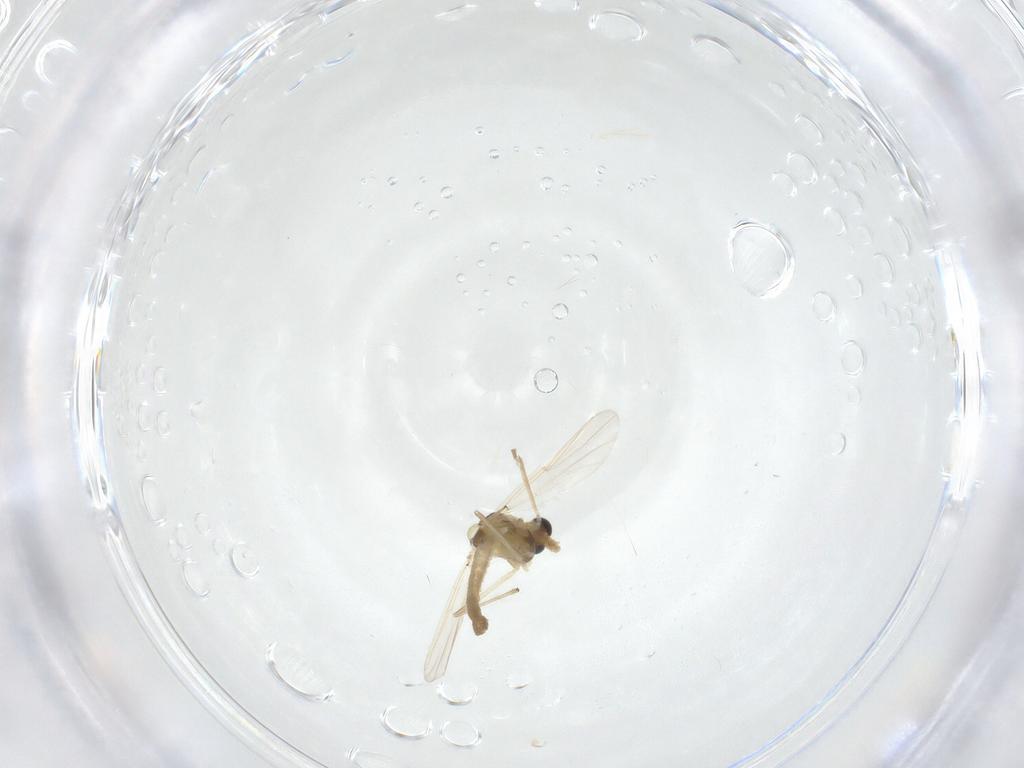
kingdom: Animalia
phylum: Arthropoda
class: Insecta
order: Diptera
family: Chironomidae
